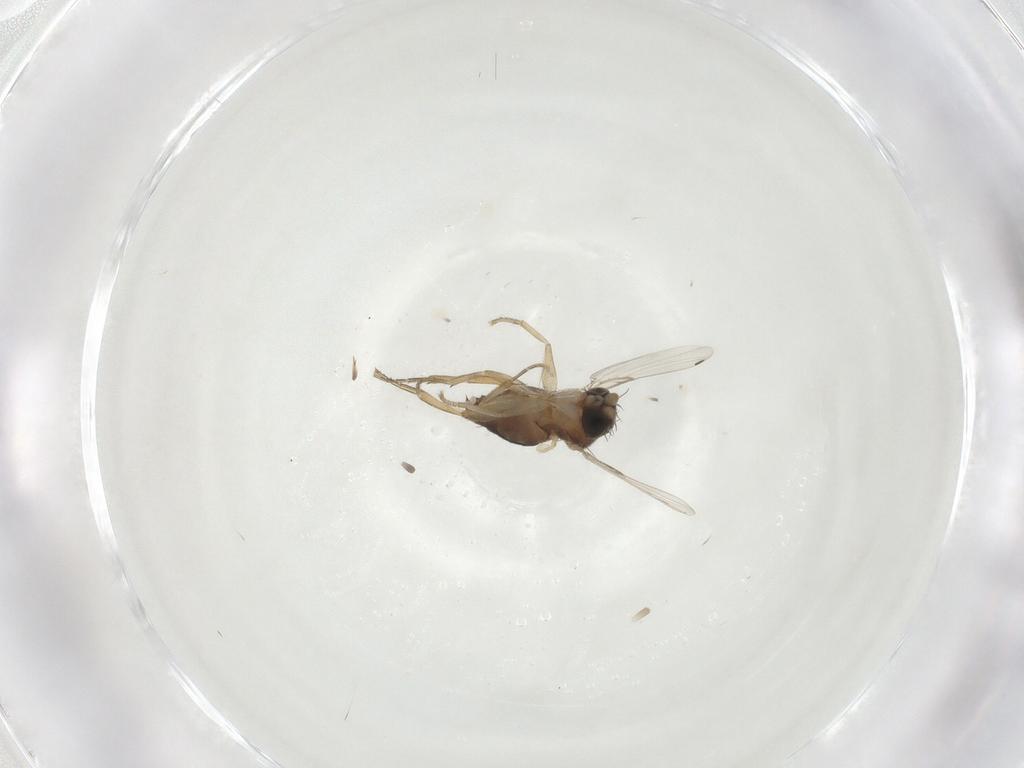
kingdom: Animalia
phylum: Arthropoda
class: Insecta
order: Diptera
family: Phoridae
